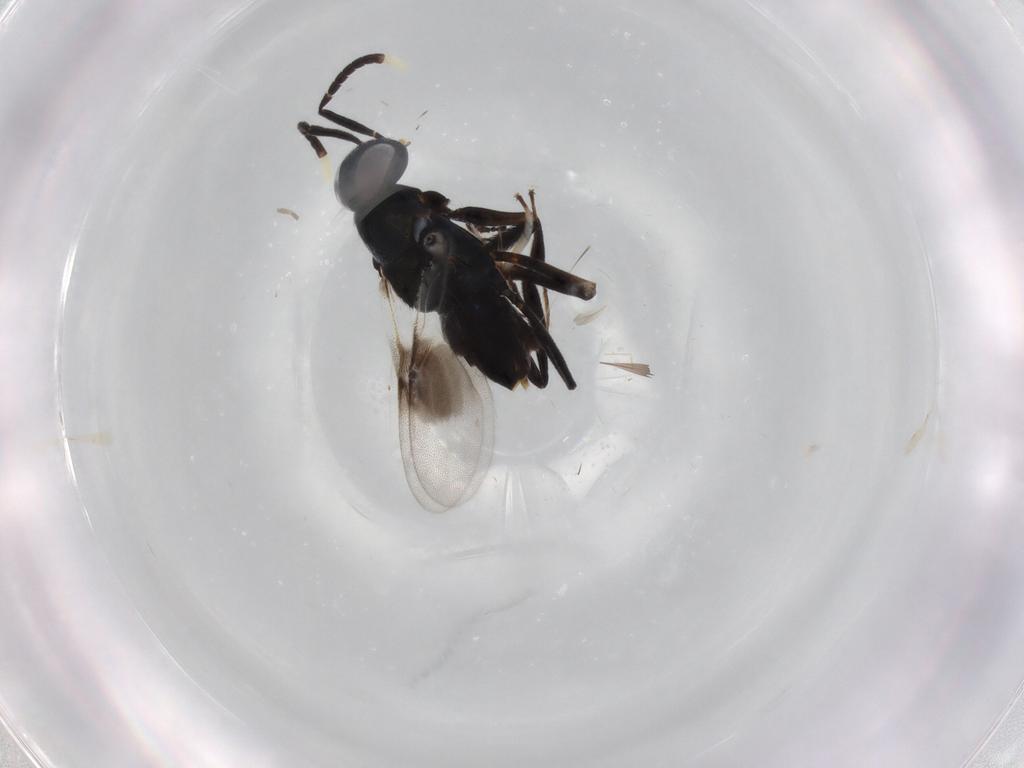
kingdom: Animalia
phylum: Arthropoda
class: Insecta
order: Hymenoptera
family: Encyrtidae
